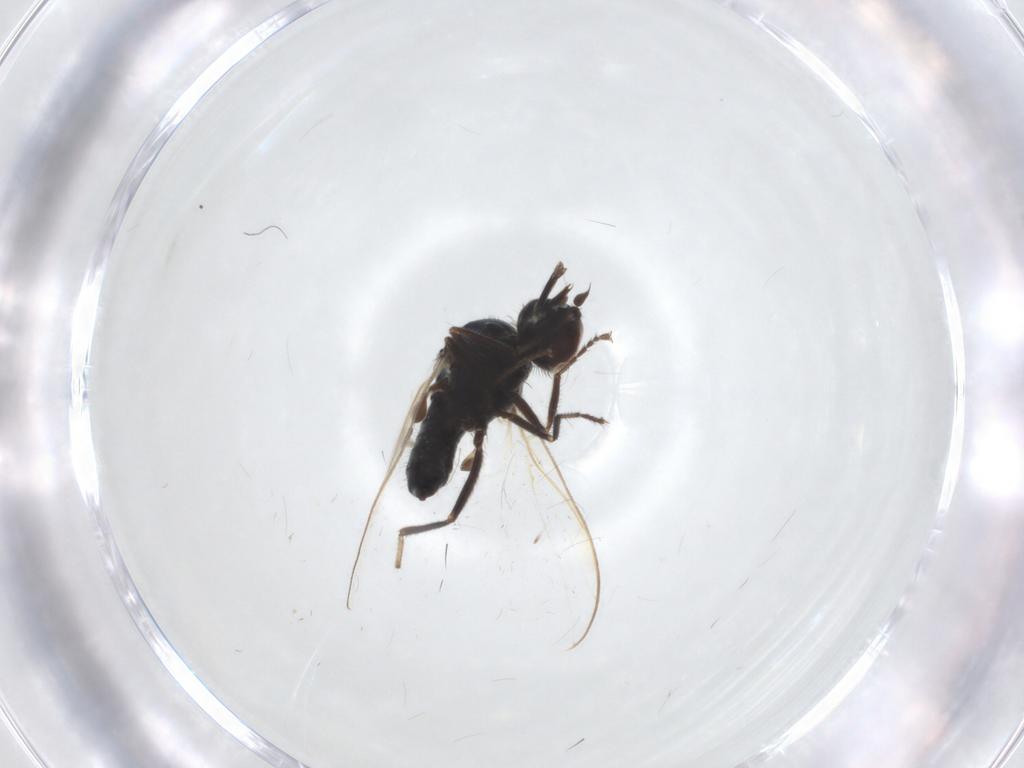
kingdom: Animalia
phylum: Arthropoda
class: Insecta
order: Diptera
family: Hybotidae
